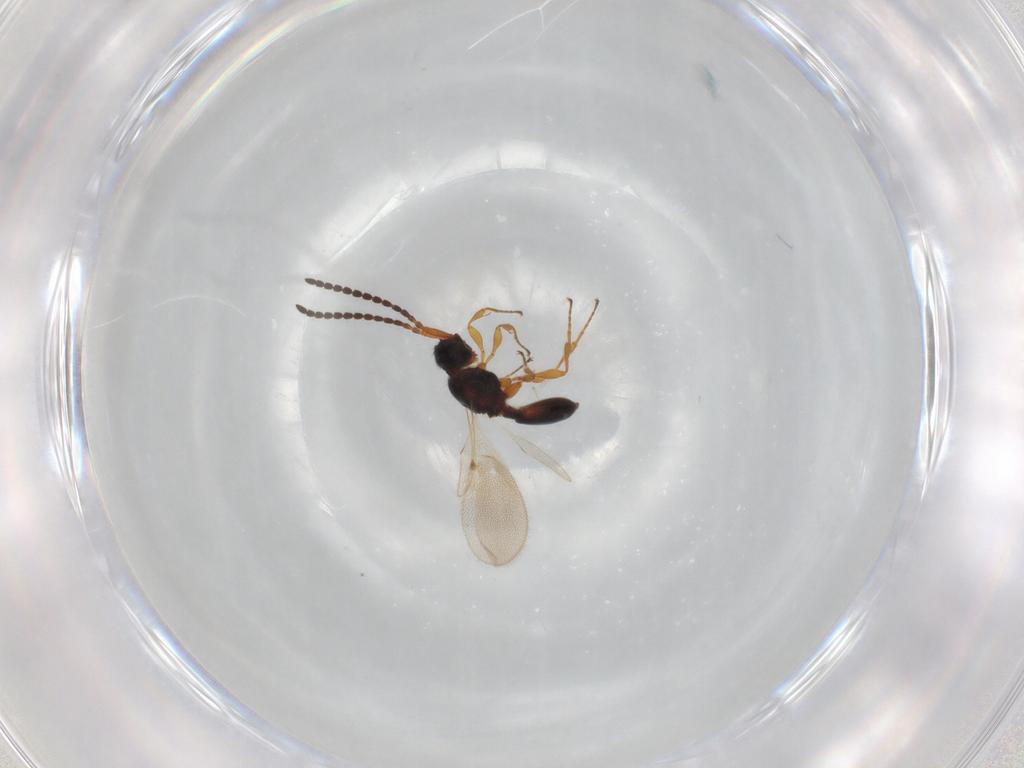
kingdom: Animalia
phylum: Arthropoda
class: Insecta
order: Hymenoptera
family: Diapriidae
